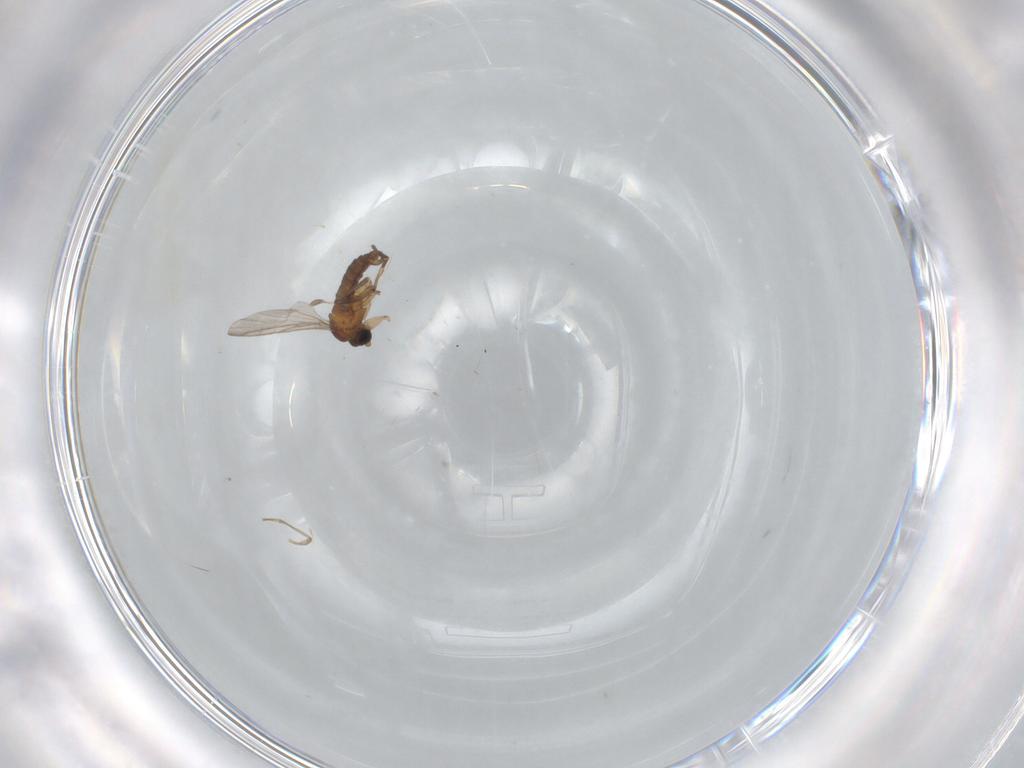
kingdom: Animalia
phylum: Arthropoda
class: Insecta
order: Diptera
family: Cecidomyiidae
